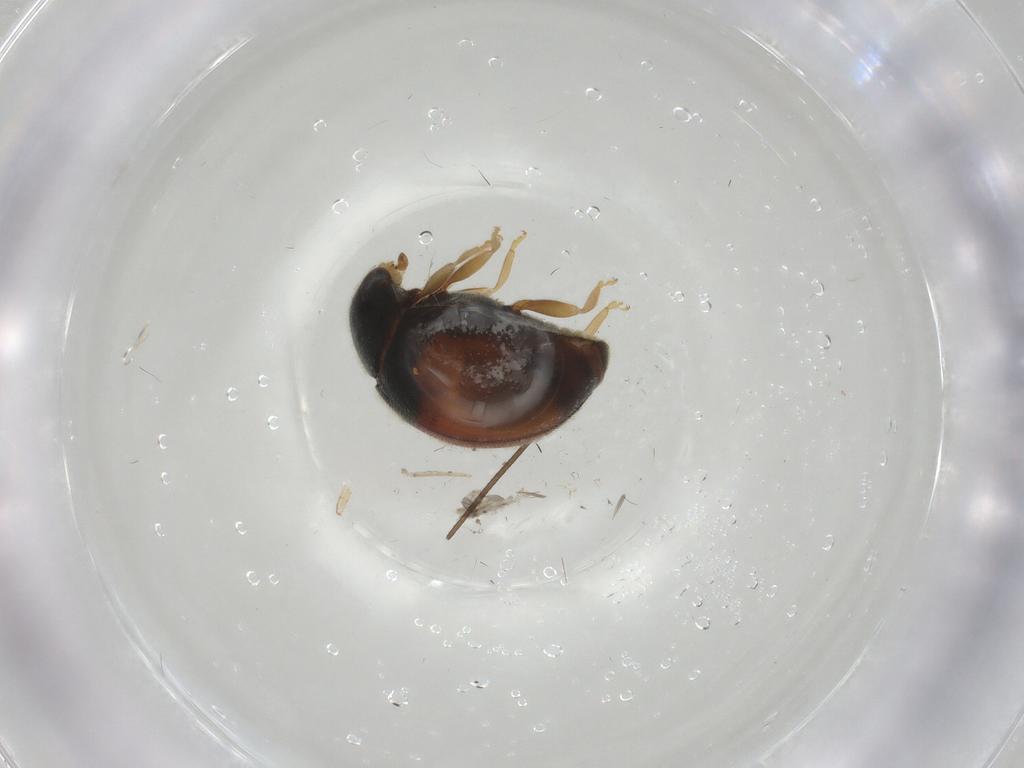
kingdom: Animalia
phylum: Arthropoda
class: Insecta
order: Coleoptera
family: Coccinellidae
